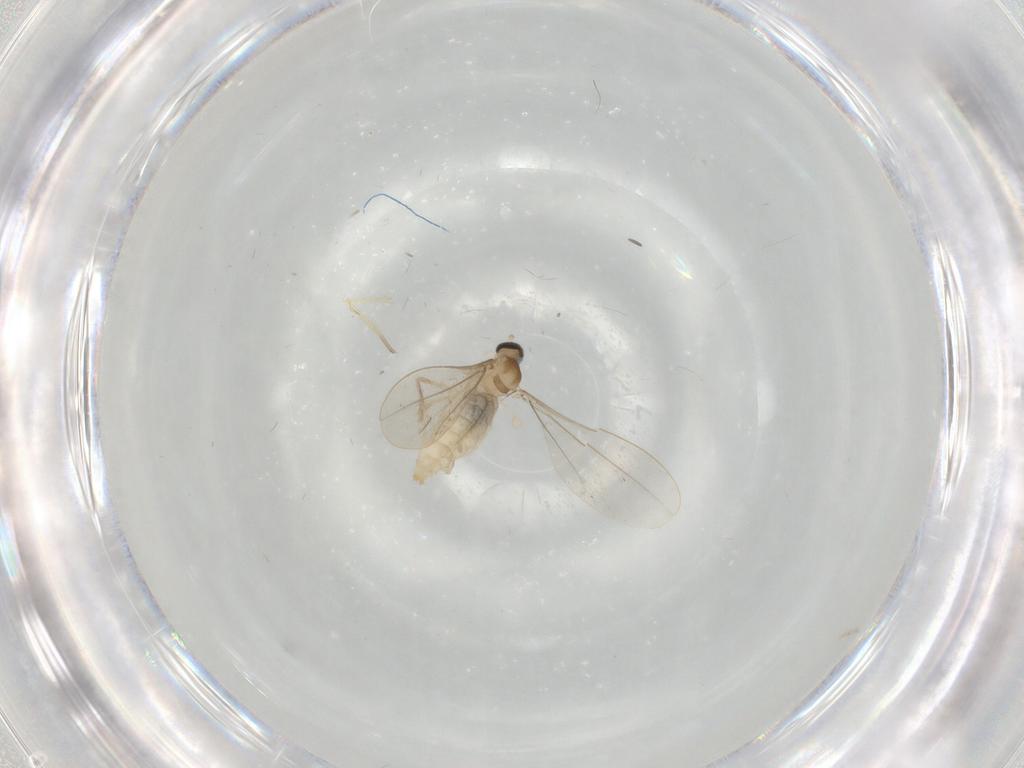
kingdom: Animalia
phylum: Arthropoda
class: Insecta
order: Diptera
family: Cecidomyiidae
